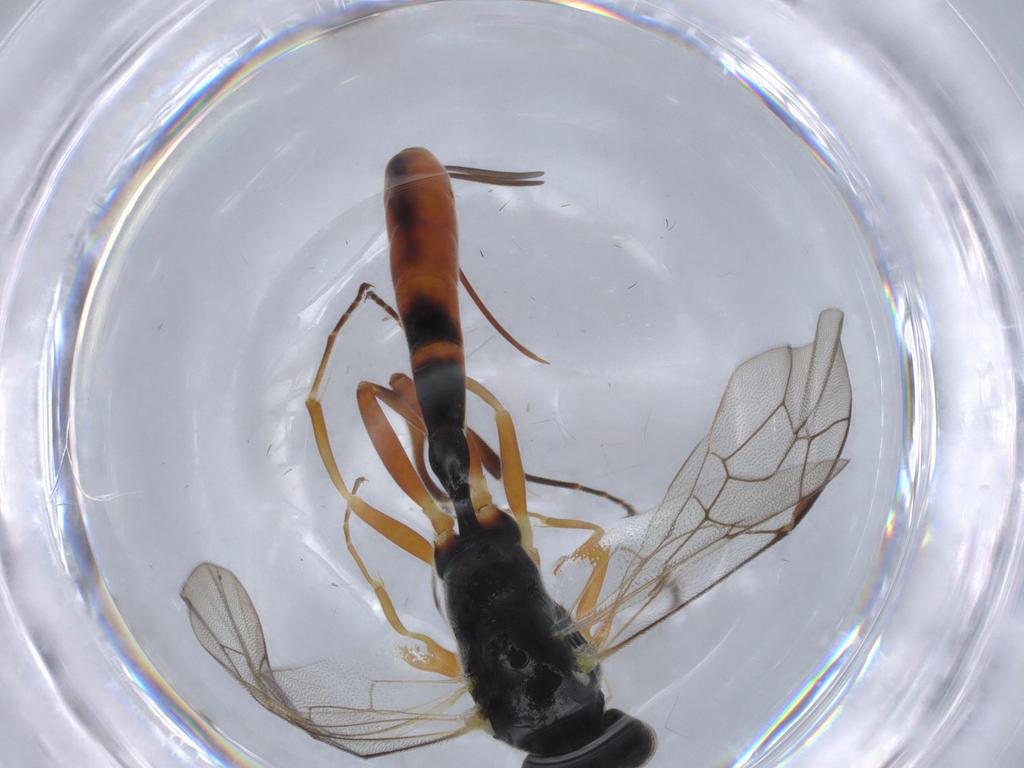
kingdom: Animalia
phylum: Arthropoda
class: Insecta
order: Hymenoptera
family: Ichneumonidae
